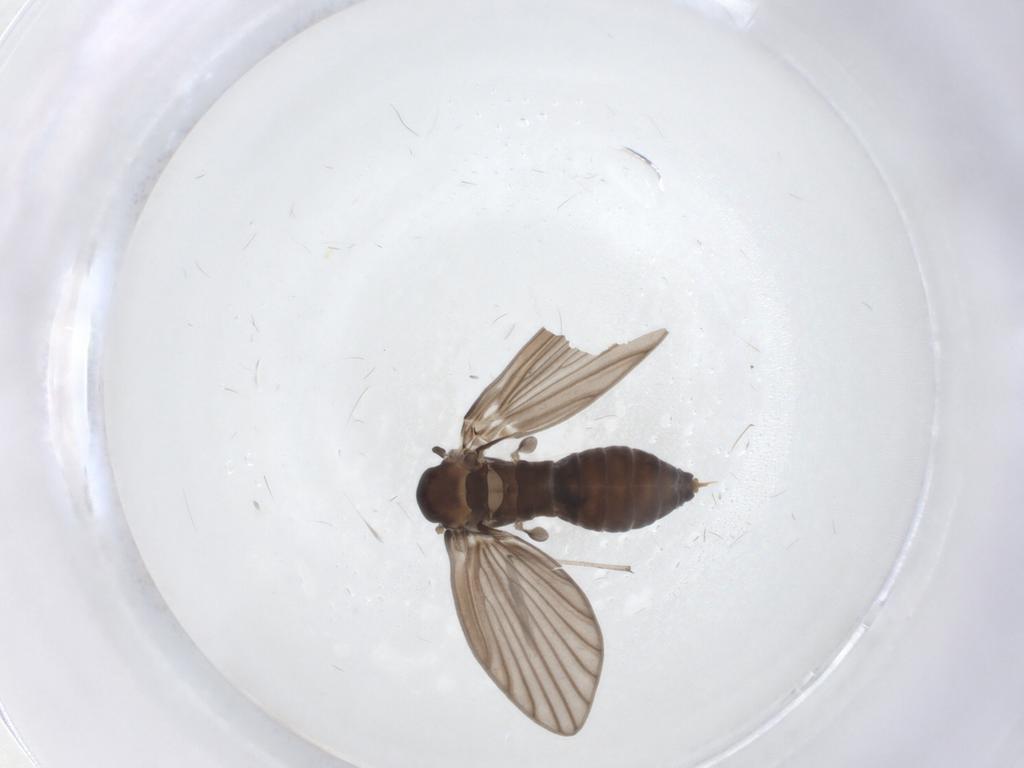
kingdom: Animalia
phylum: Arthropoda
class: Insecta
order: Diptera
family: Psychodidae
